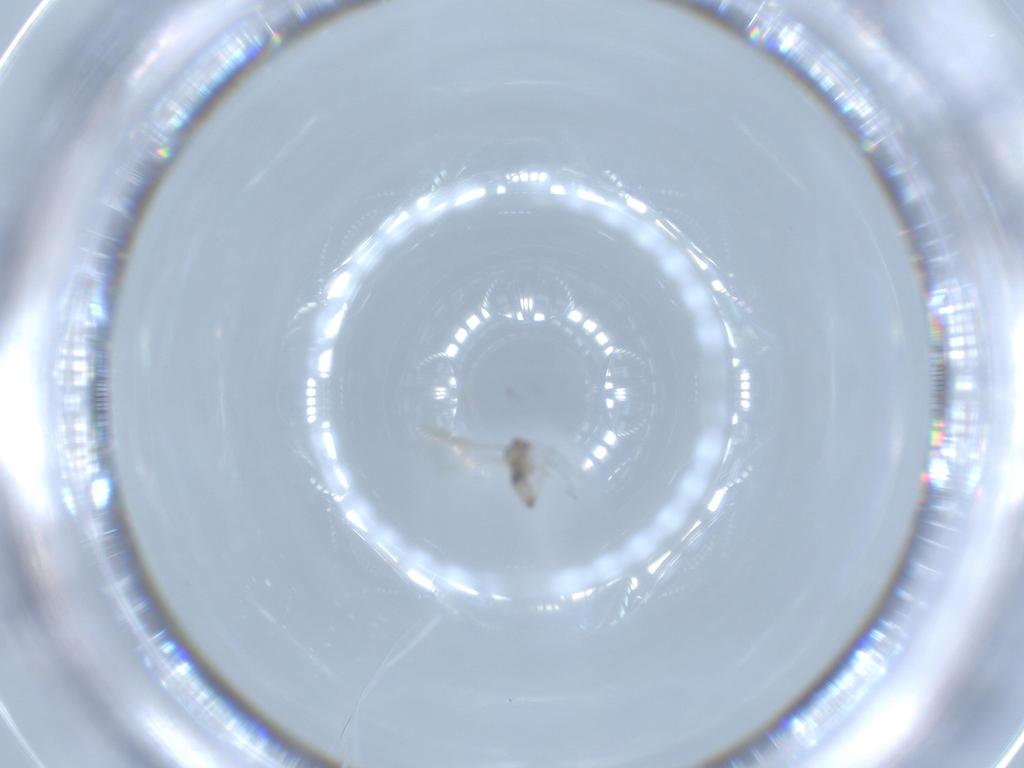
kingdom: Animalia
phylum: Arthropoda
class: Insecta
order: Diptera
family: Cecidomyiidae
